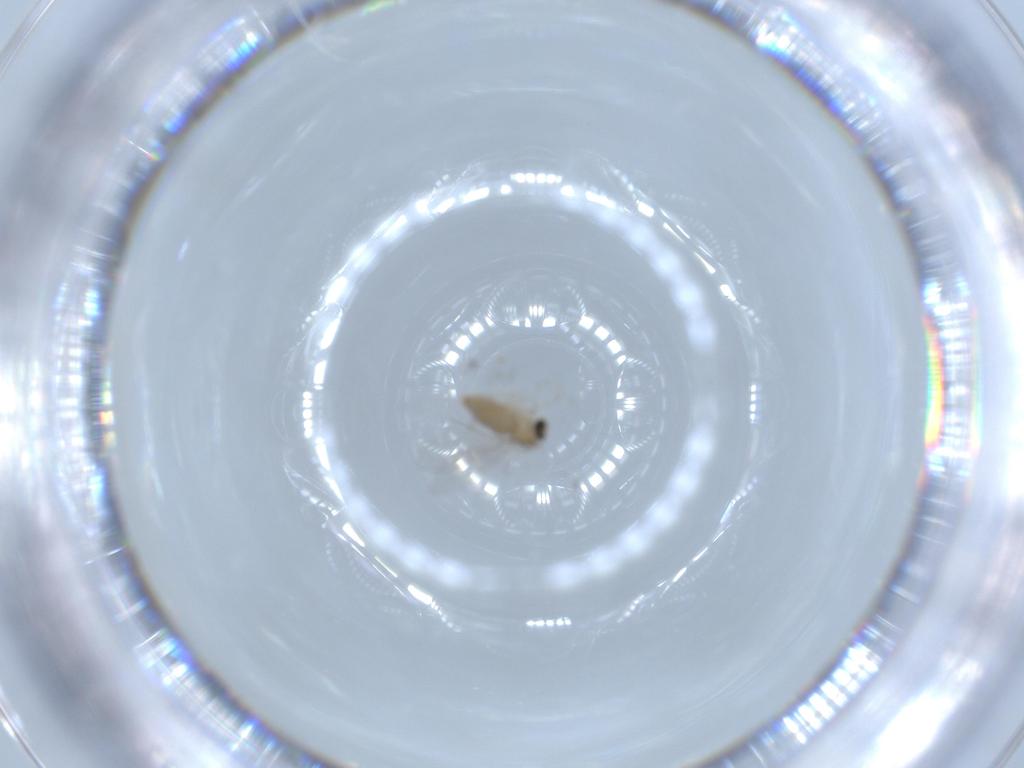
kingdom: Animalia
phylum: Arthropoda
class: Insecta
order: Diptera
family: Cecidomyiidae
